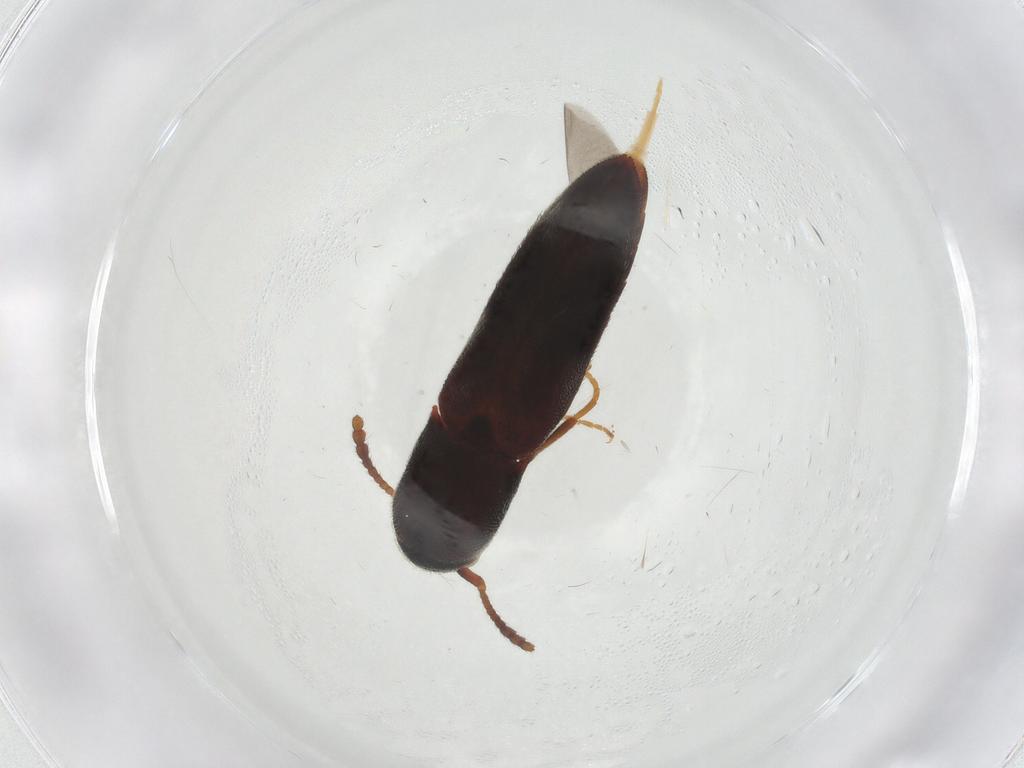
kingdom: Animalia
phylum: Arthropoda
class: Insecta
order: Coleoptera
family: Eucnemidae
